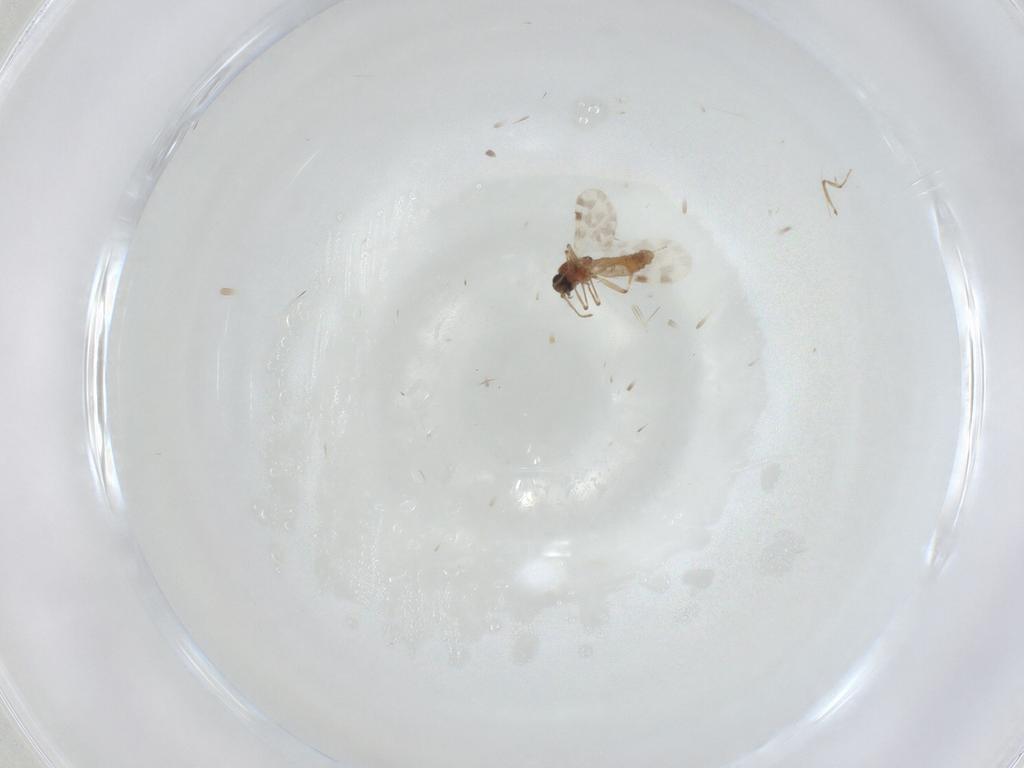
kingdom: Animalia
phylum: Arthropoda
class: Insecta
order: Diptera
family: Ceratopogonidae
